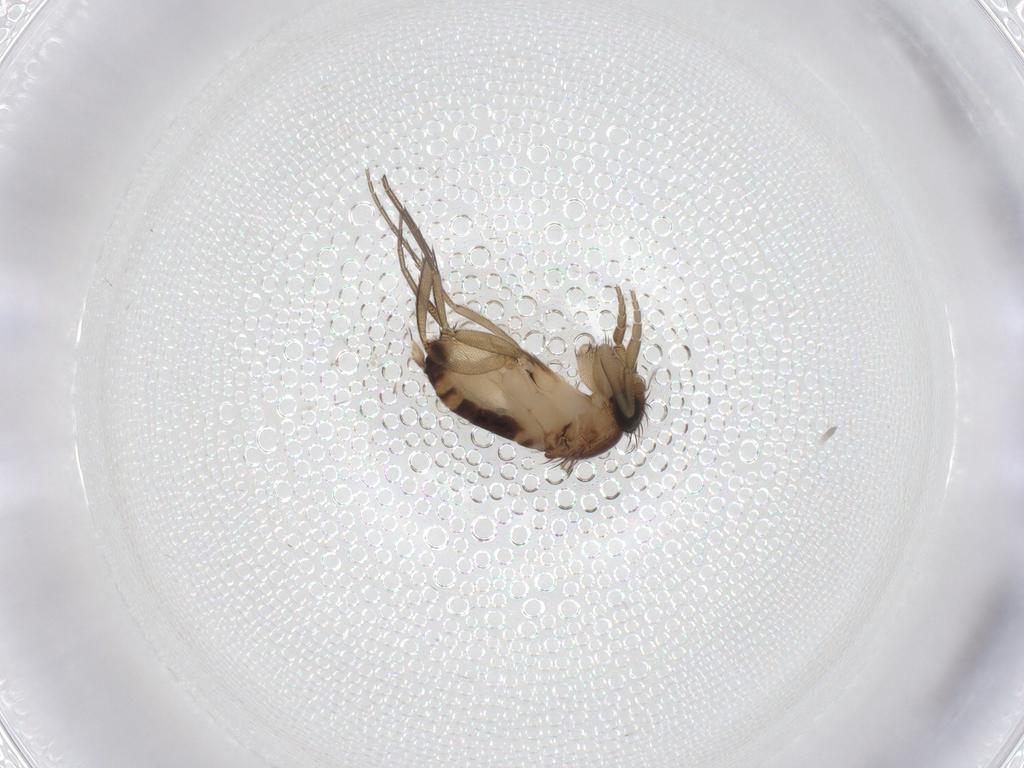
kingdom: Animalia
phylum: Arthropoda
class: Insecta
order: Diptera
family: Phoridae
